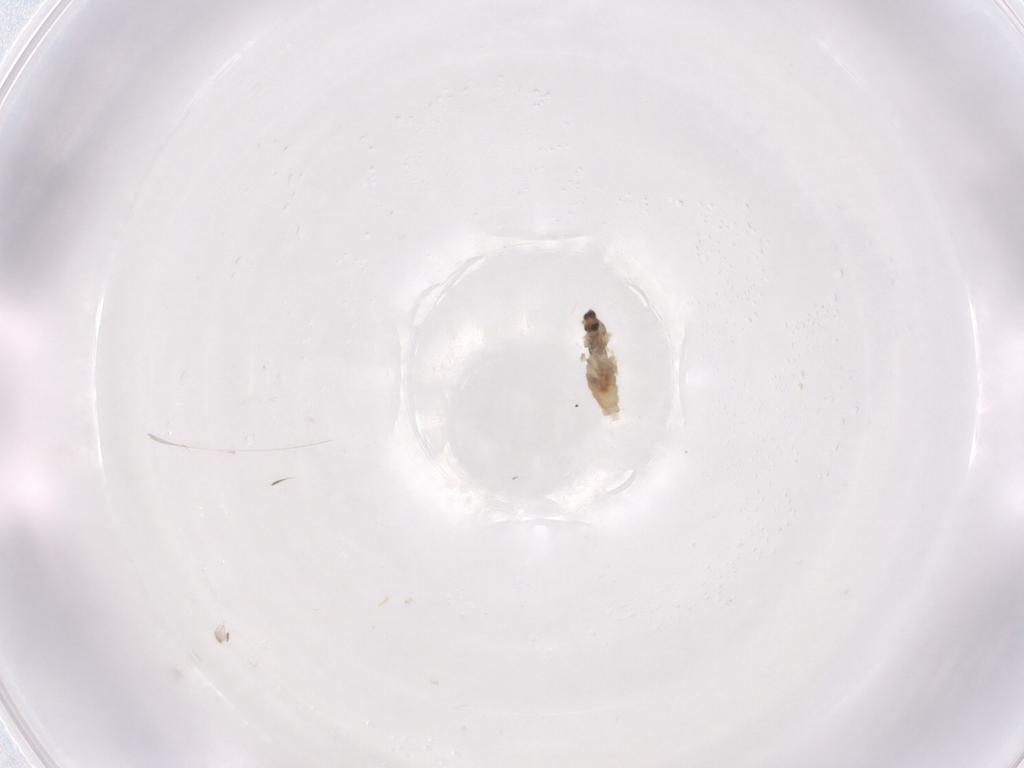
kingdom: Animalia
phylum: Arthropoda
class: Insecta
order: Diptera
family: Cecidomyiidae
